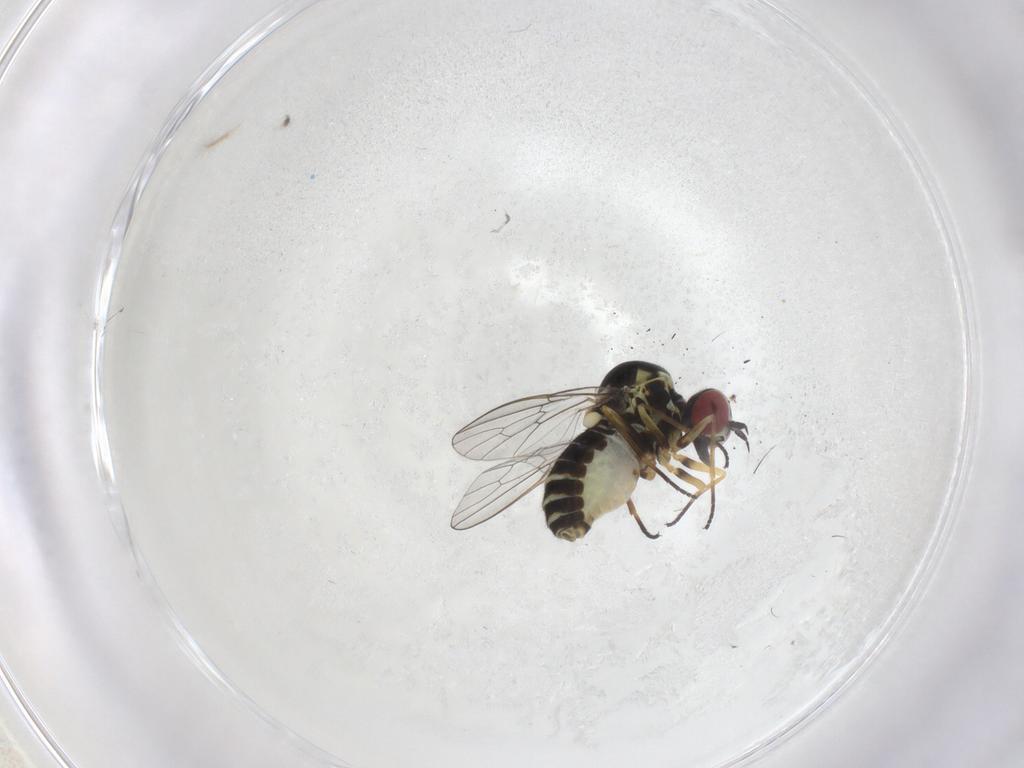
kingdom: Animalia
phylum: Arthropoda
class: Insecta
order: Diptera
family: Bombyliidae
